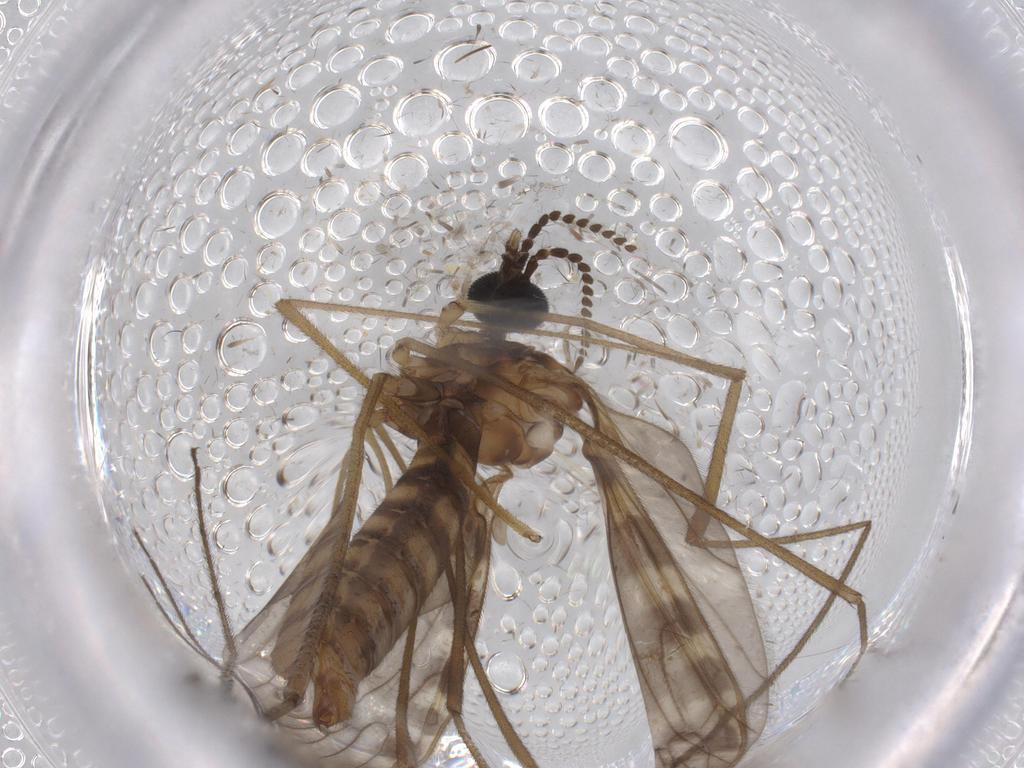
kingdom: Animalia
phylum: Arthropoda
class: Insecta
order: Diptera
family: Cecidomyiidae
